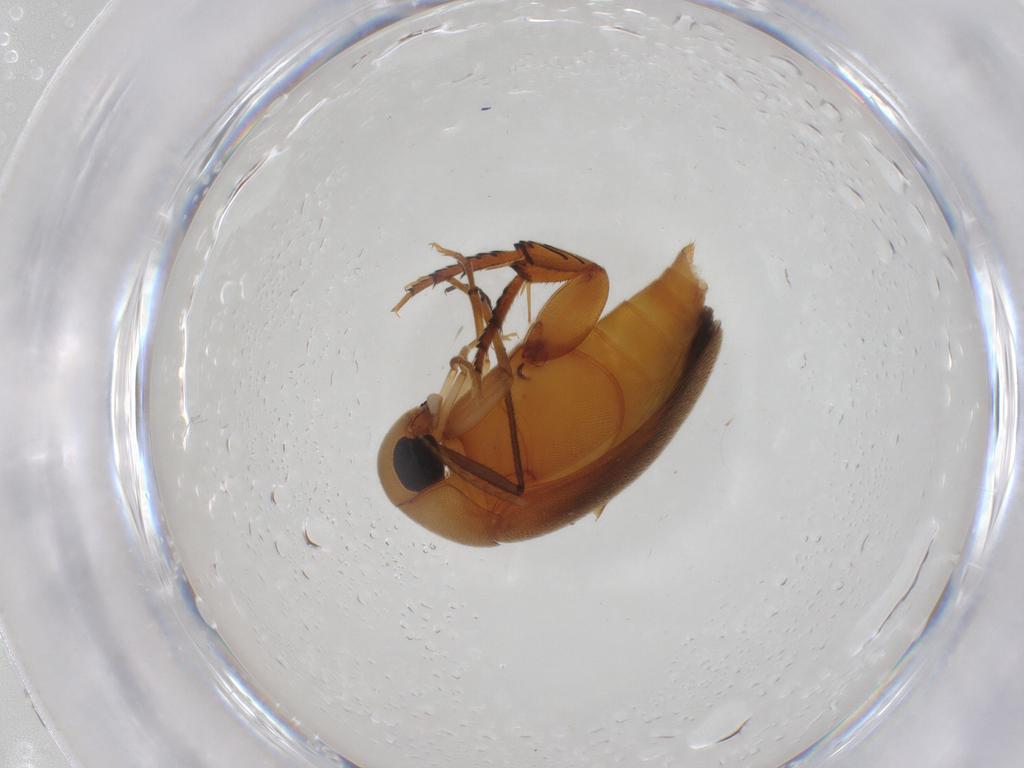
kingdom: Animalia
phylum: Arthropoda
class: Insecta
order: Coleoptera
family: Mordellidae
